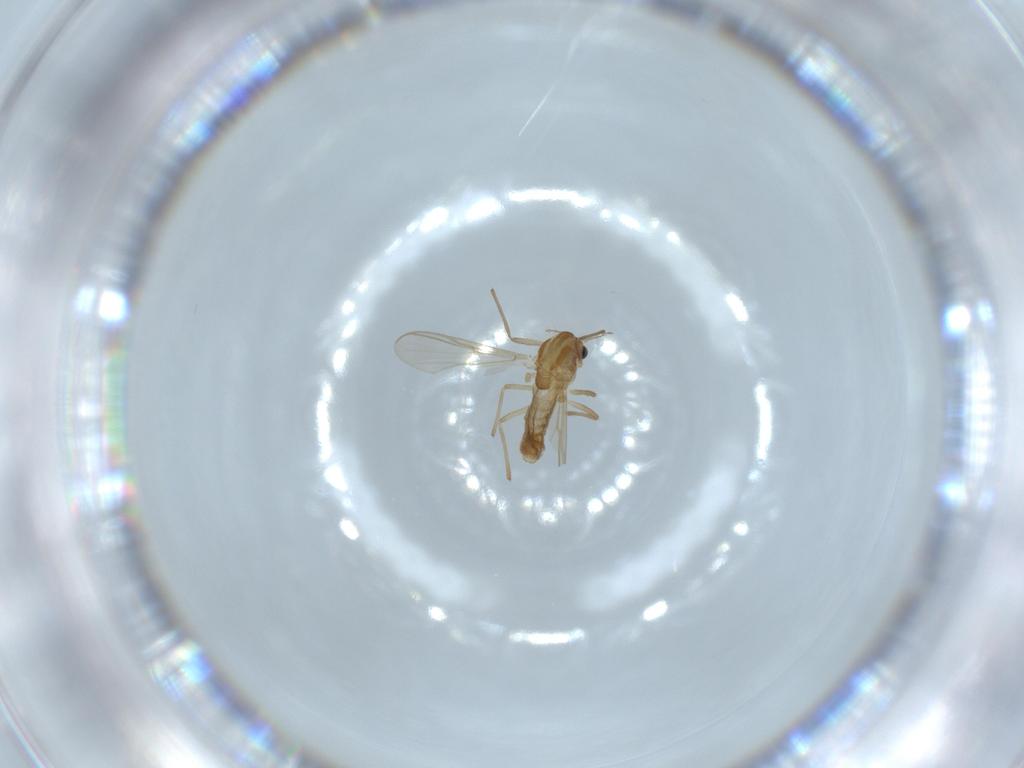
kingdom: Animalia
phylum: Arthropoda
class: Insecta
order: Diptera
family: Chironomidae
